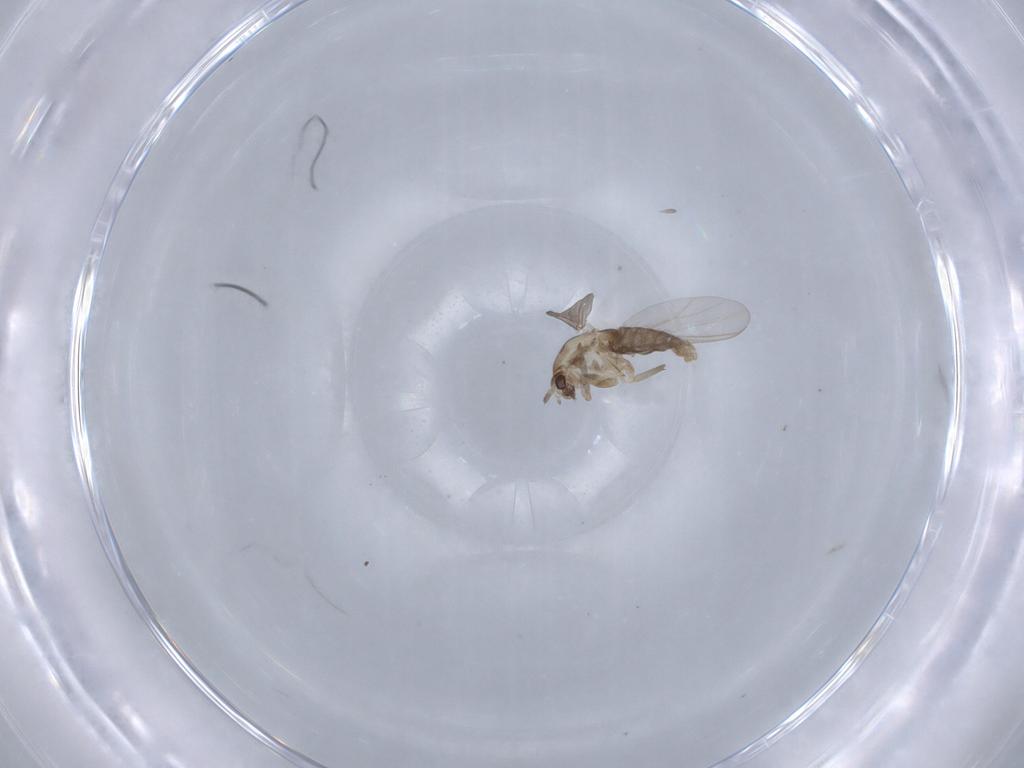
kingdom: Animalia
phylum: Arthropoda
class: Insecta
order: Diptera
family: Chironomidae
